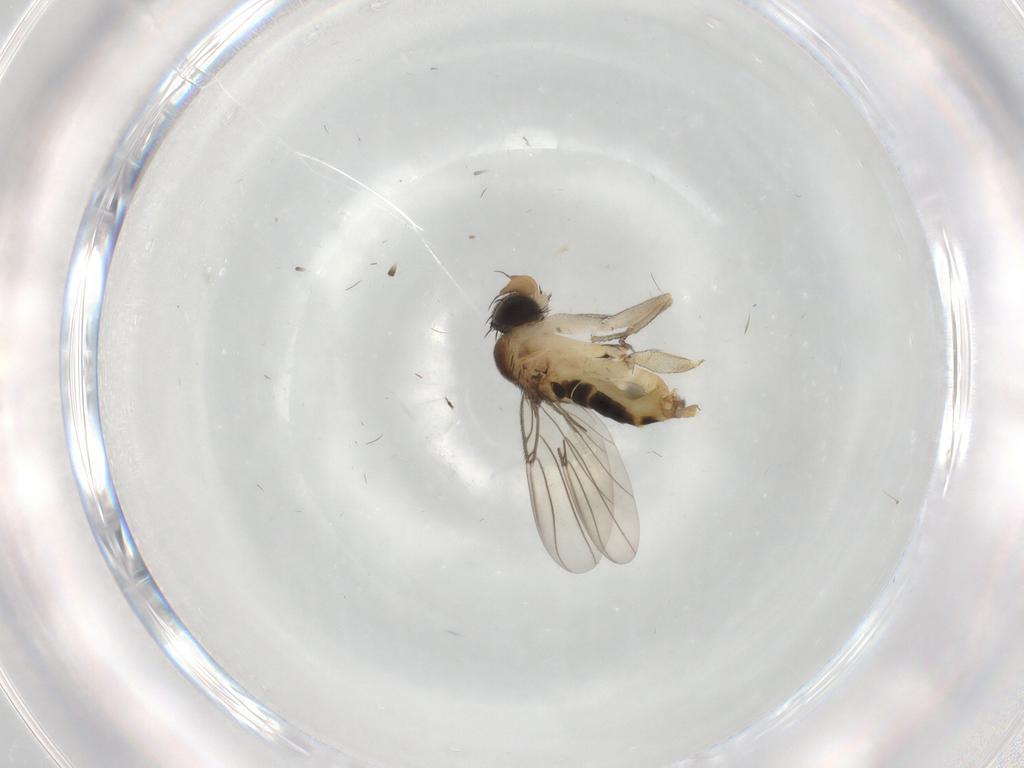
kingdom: Animalia
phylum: Arthropoda
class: Insecta
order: Diptera
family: Phoridae
